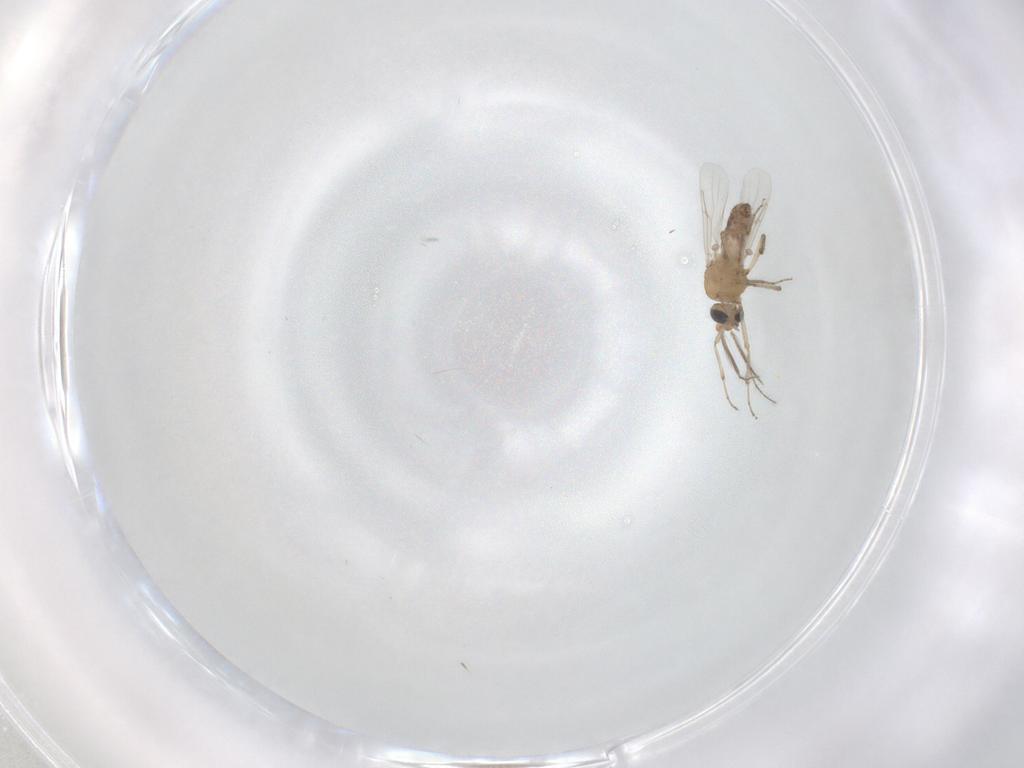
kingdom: Animalia
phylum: Arthropoda
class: Insecta
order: Diptera
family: Ceratopogonidae
